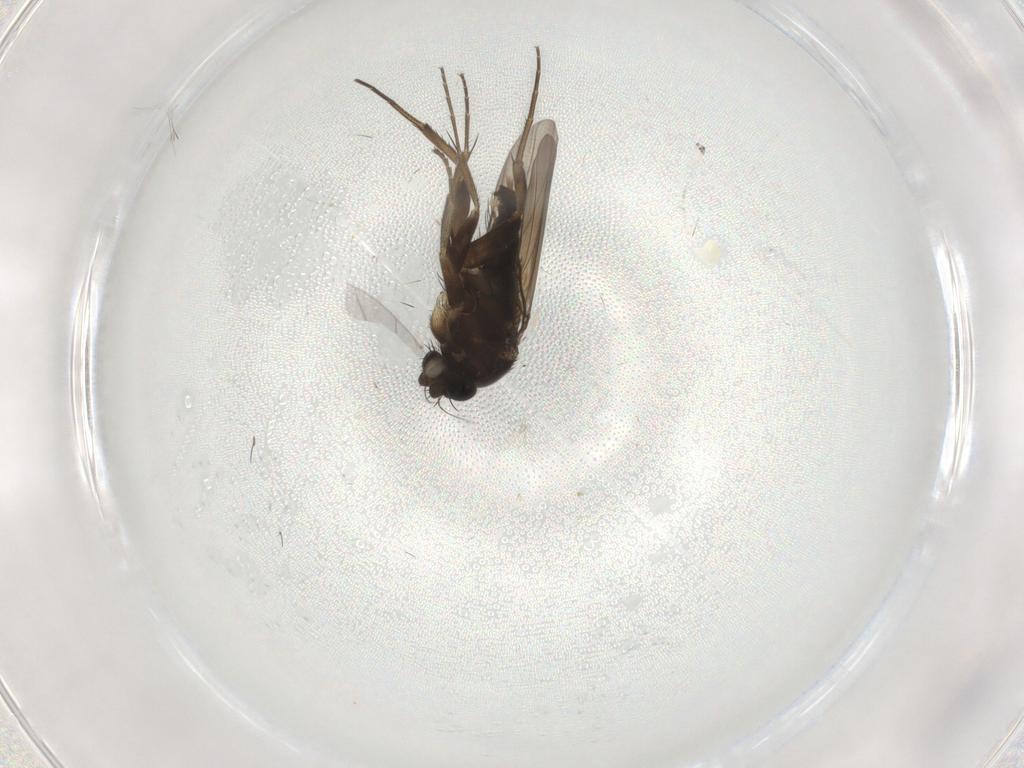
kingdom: Animalia
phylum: Arthropoda
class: Insecta
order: Diptera
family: Phoridae
